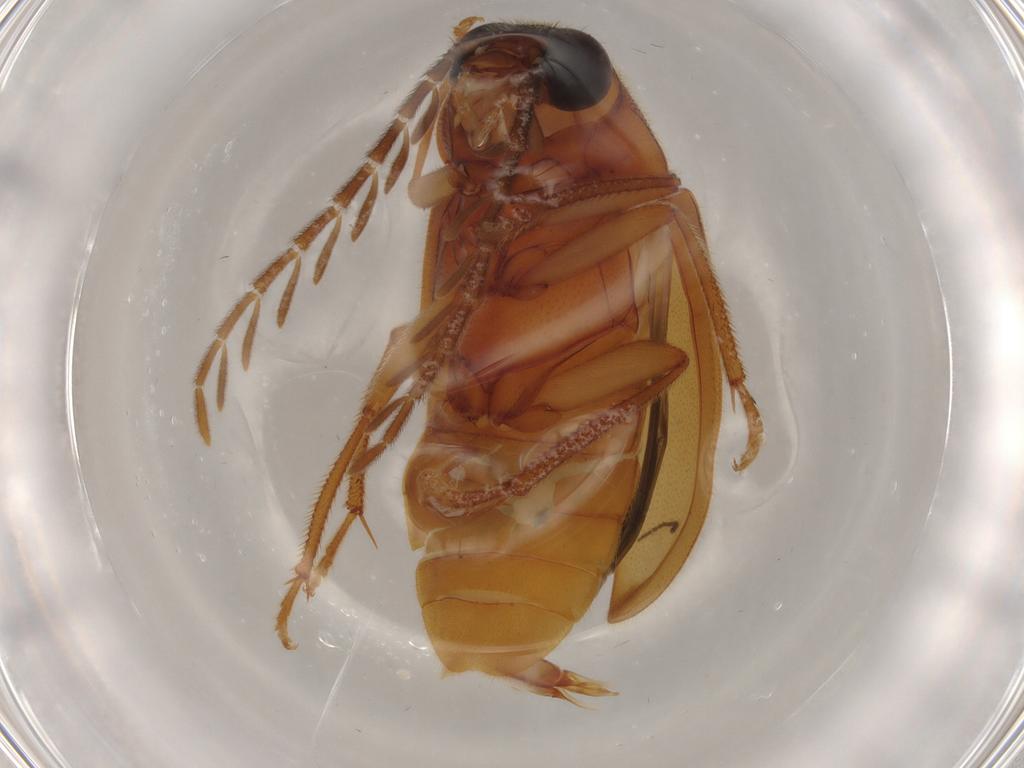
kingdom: Animalia
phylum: Arthropoda
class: Insecta
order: Coleoptera
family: Ptilodactylidae
